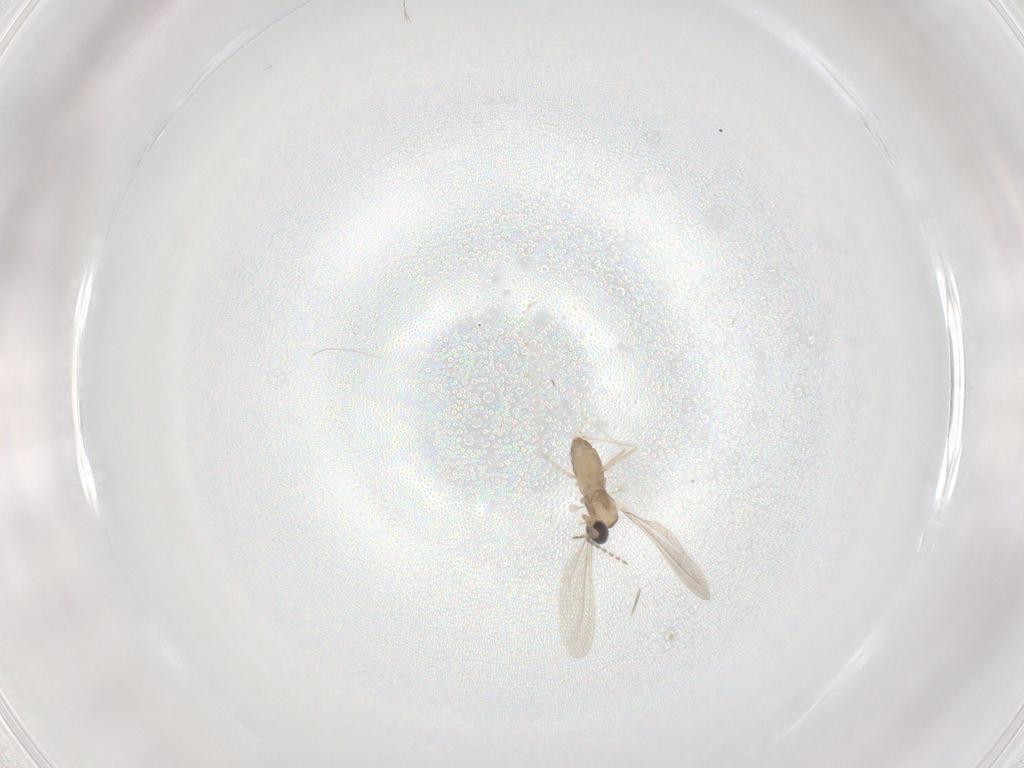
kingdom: Animalia
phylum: Arthropoda
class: Insecta
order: Diptera
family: Cecidomyiidae
